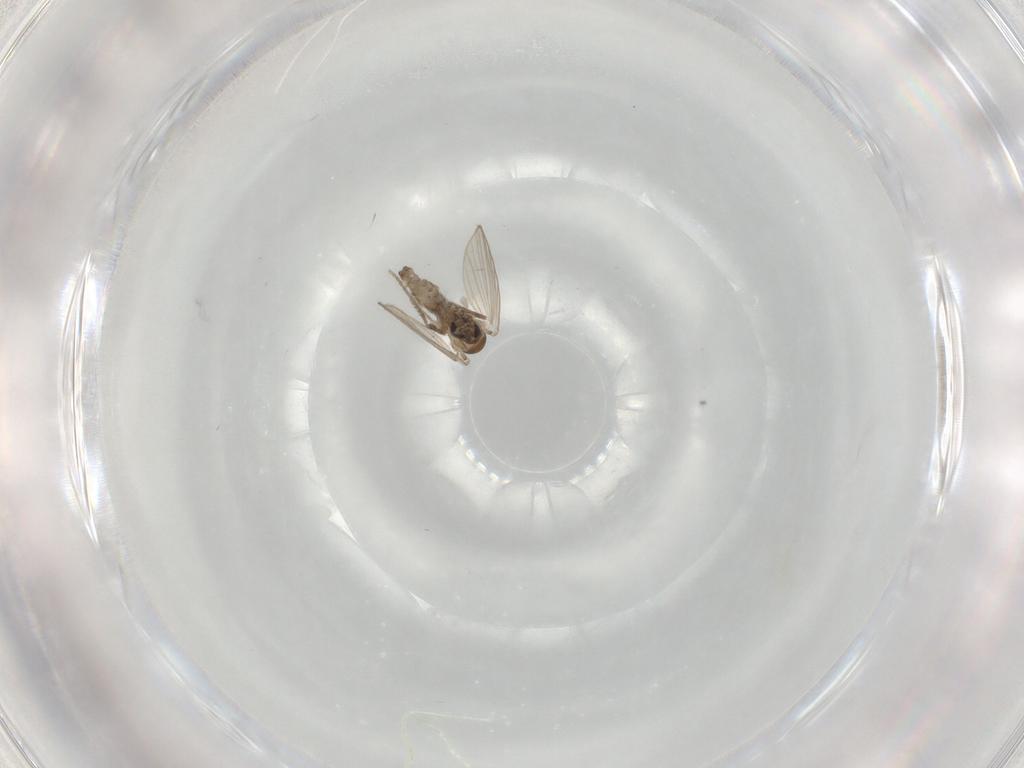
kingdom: Animalia
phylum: Arthropoda
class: Insecta
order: Diptera
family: Psychodidae
